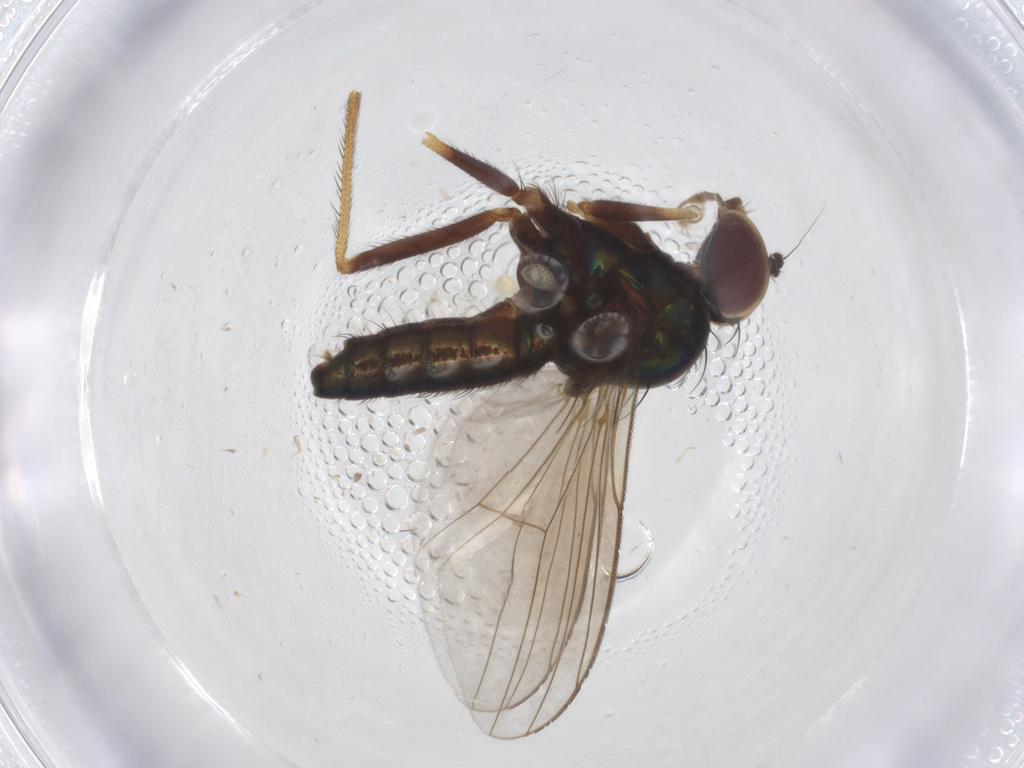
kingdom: Animalia
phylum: Arthropoda
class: Insecta
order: Diptera
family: Dolichopodidae
